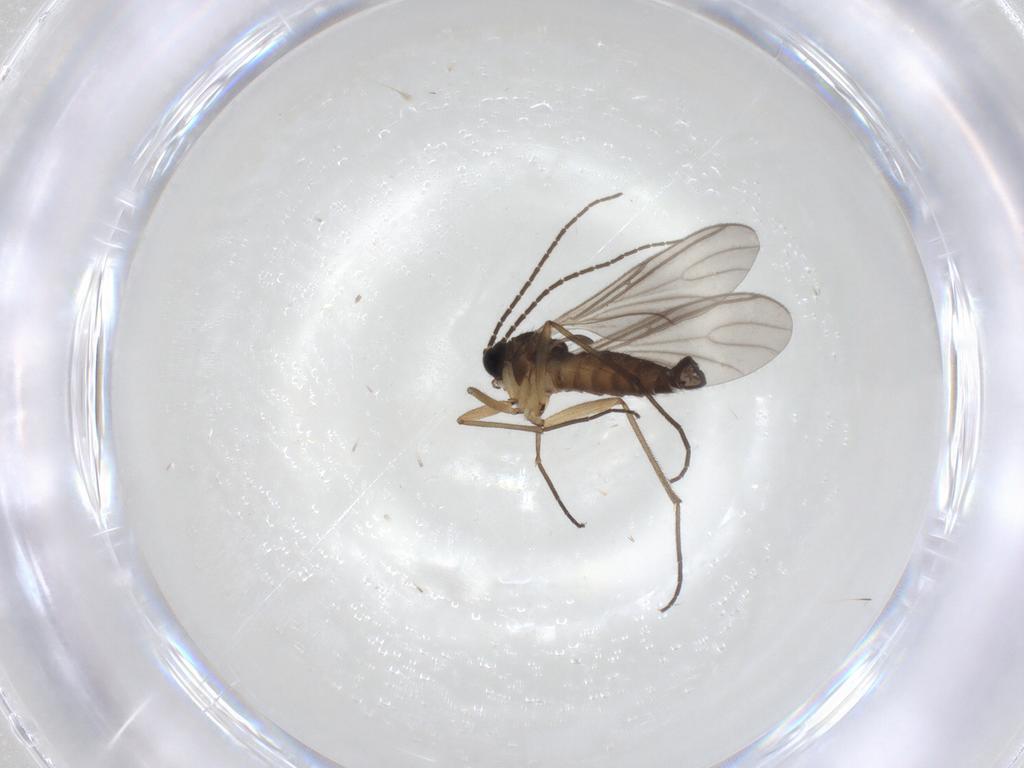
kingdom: Animalia
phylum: Arthropoda
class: Insecta
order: Diptera
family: Sciaridae
